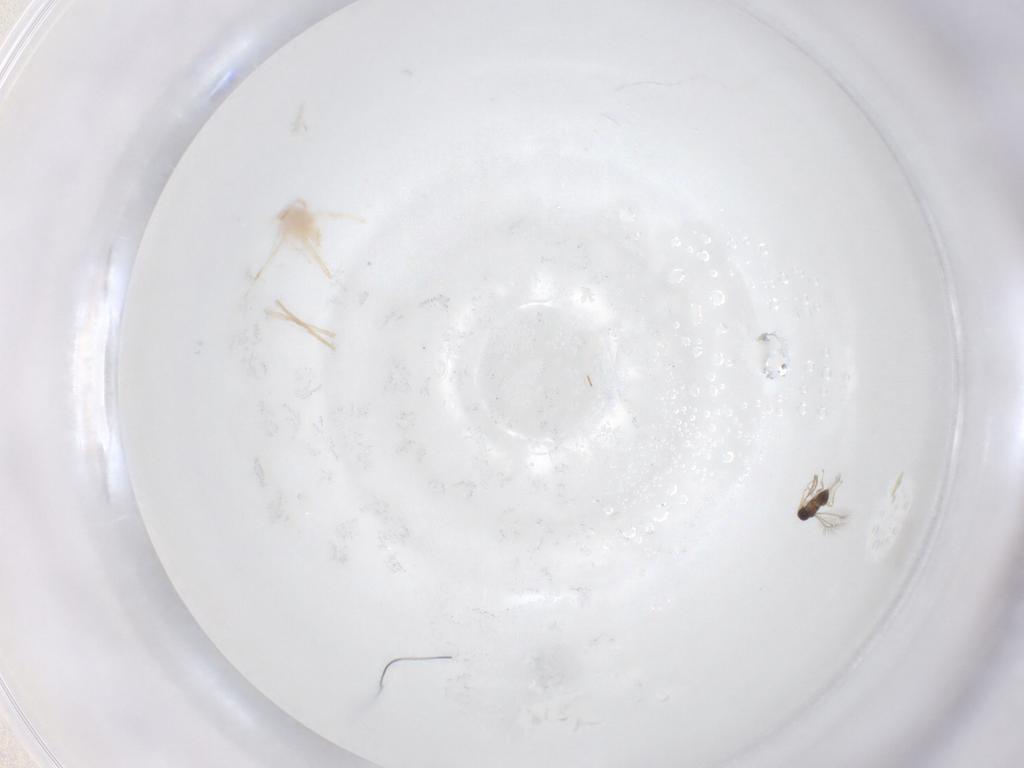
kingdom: Animalia
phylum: Arthropoda
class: Insecta
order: Hymenoptera
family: Scelionidae
